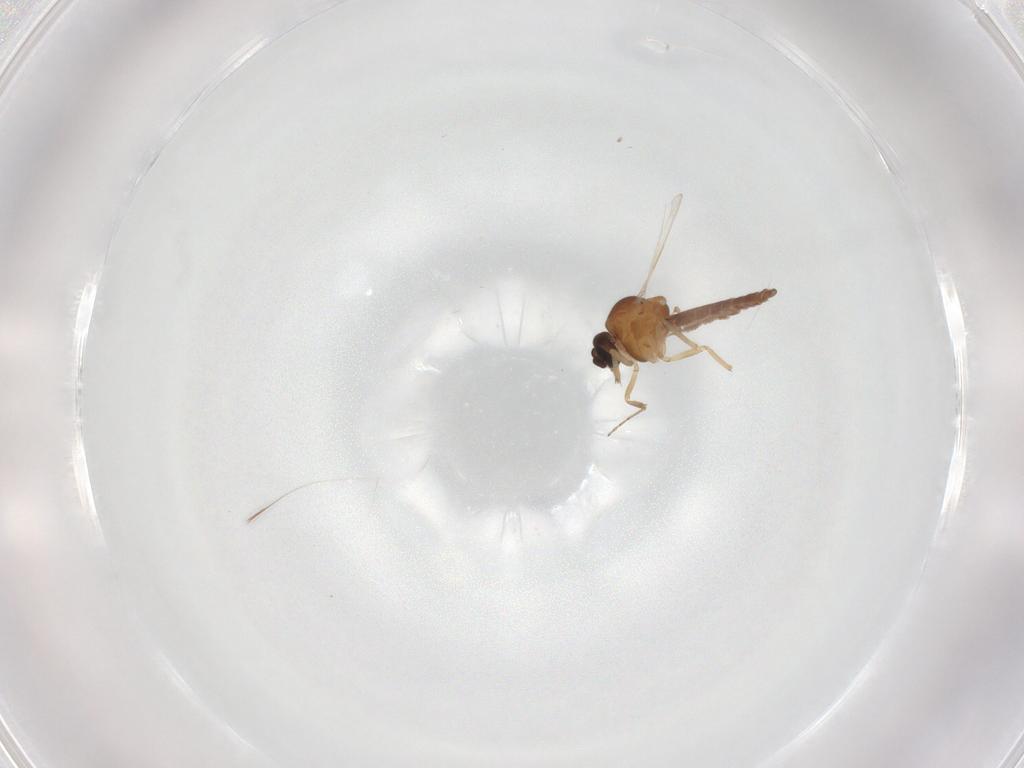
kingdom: Animalia
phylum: Arthropoda
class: Insecta
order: Diptera
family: Ceratopogonidae
